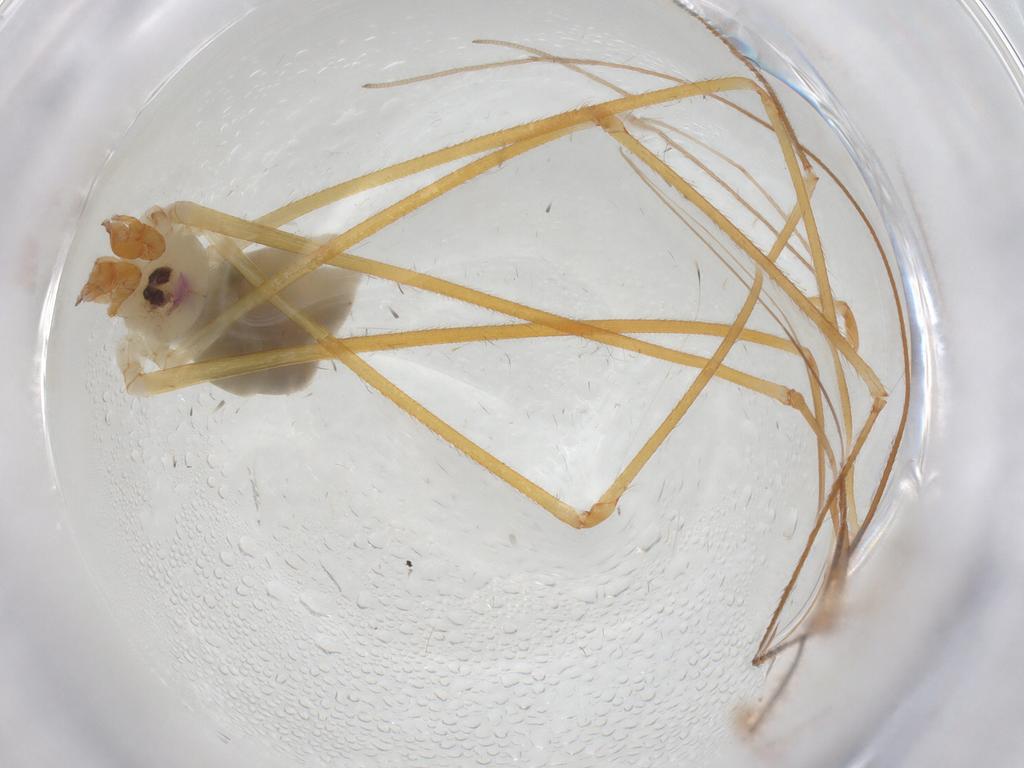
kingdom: Animalia
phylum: Arthropoda
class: Arachnida
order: Araneae
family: Pholcidae
